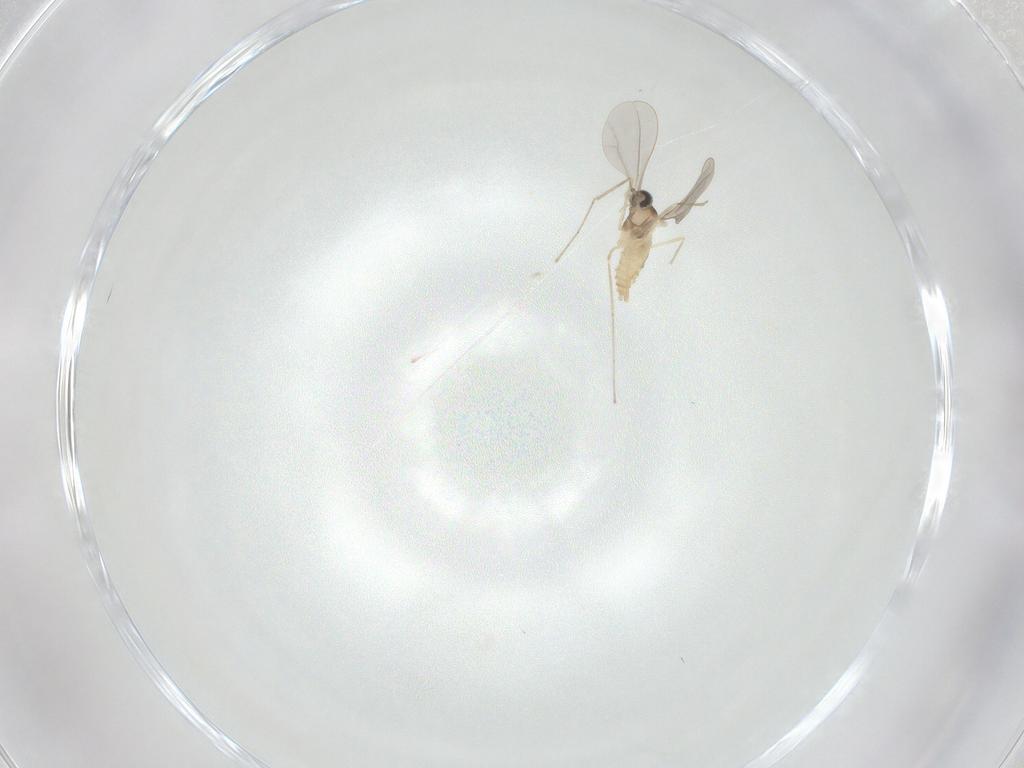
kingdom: Animalia
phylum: Arthropoda
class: Insecta
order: Diptera
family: Cecidomyiidae
